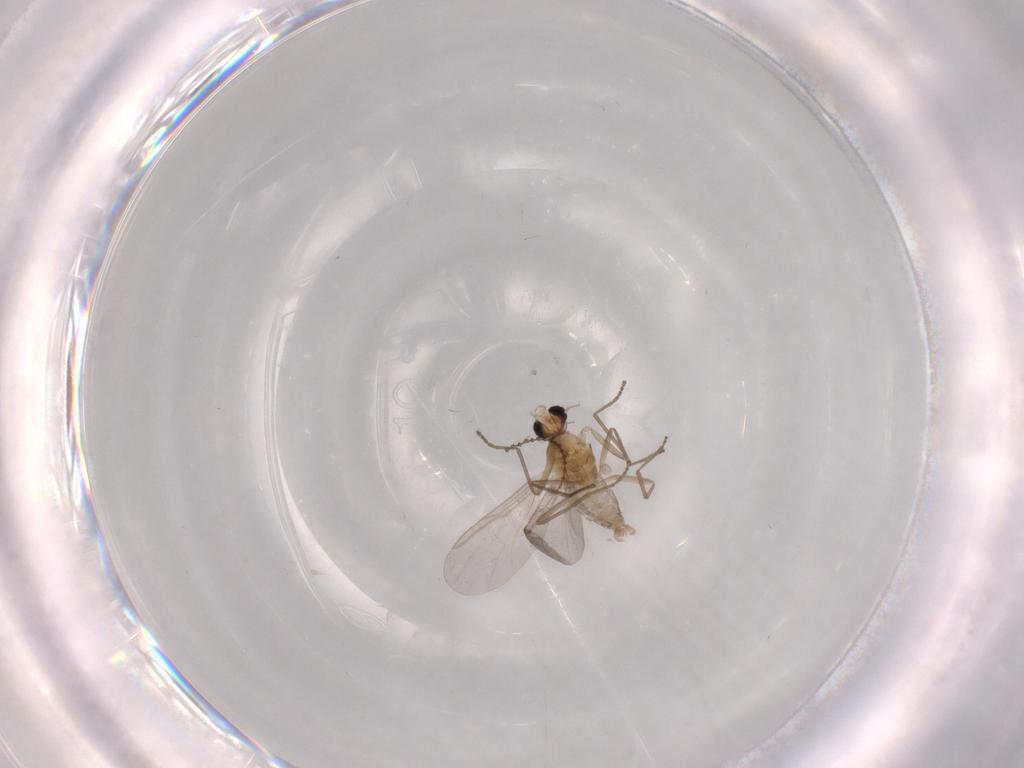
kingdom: Animalia
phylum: Arthropoda
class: Insecta
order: Diptera
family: Cecidomyiidae
